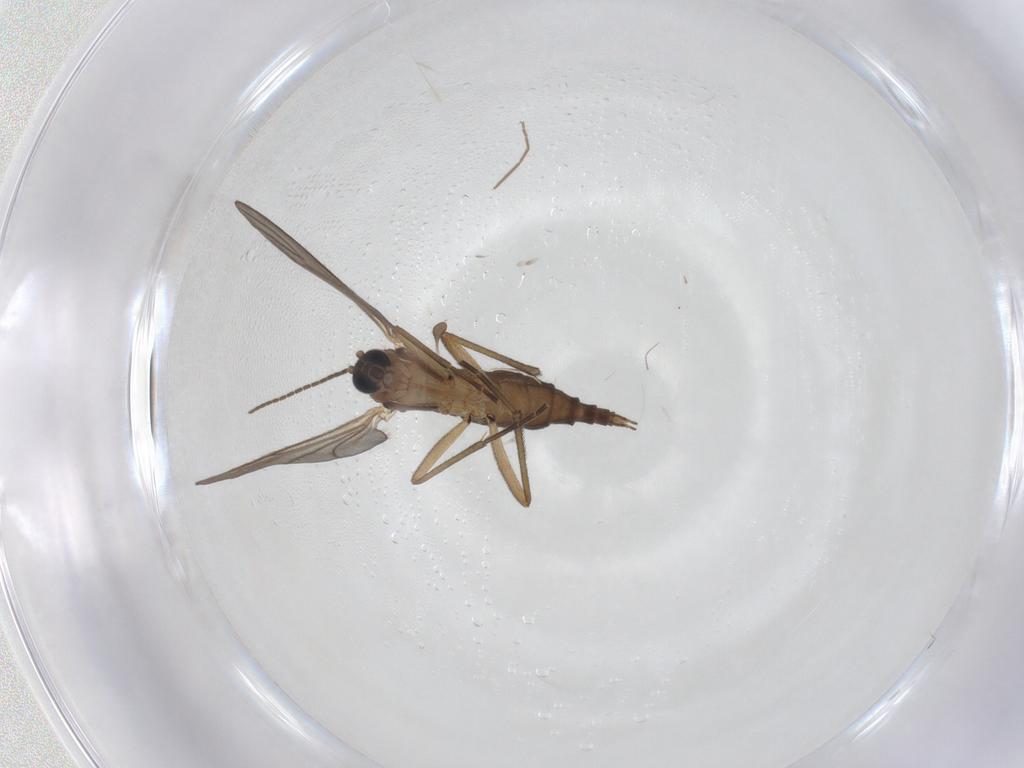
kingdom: Animalia
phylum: Arthropoda
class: Insecta
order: Diptera
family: Sciaridae
